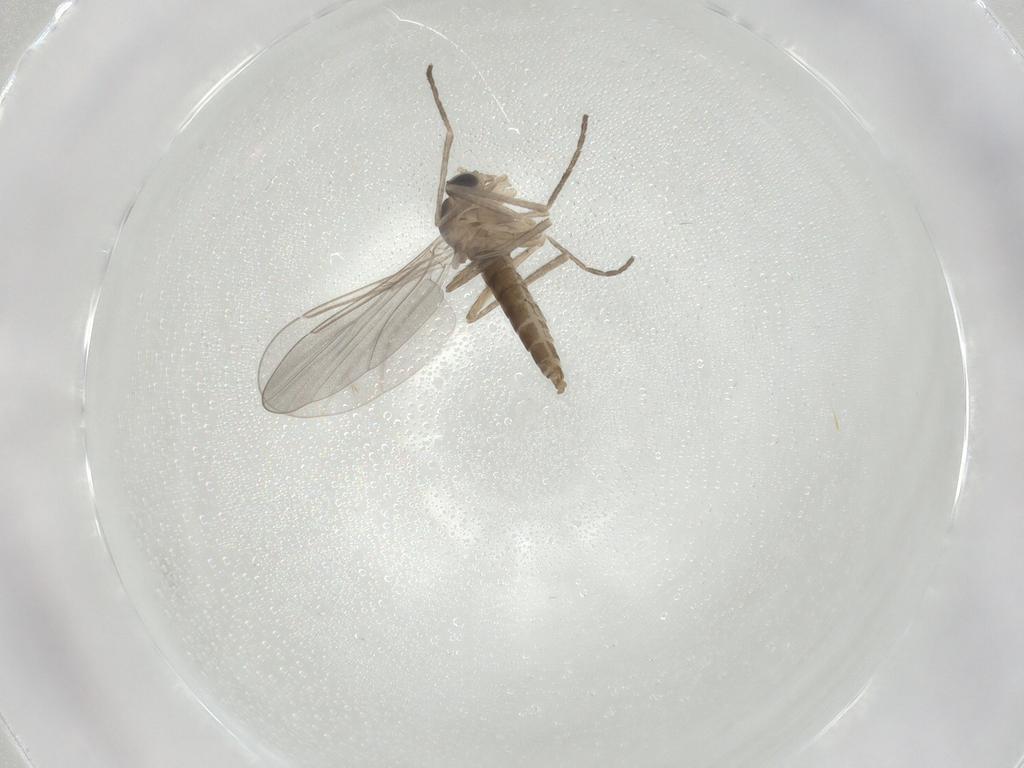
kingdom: Animalia
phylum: Arthropoda
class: Insecta
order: Diptera
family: Cecidomyiidae
